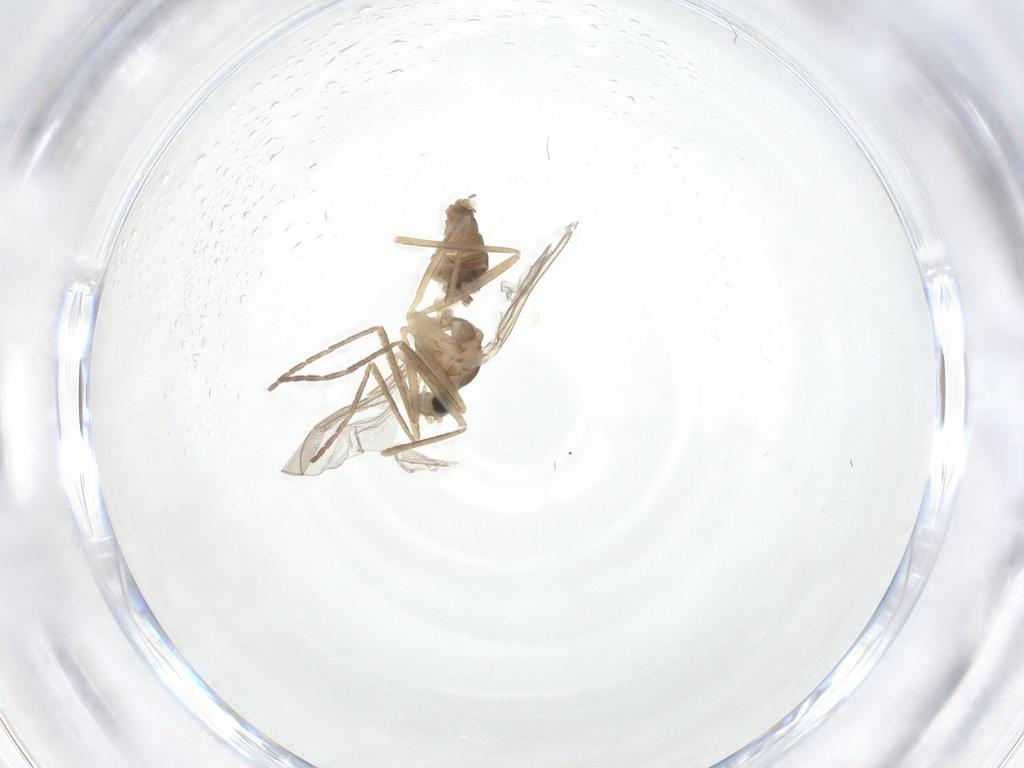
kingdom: Animalia
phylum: Arthropoda
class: Insecta
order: Diptera
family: Cecidomyiidae
